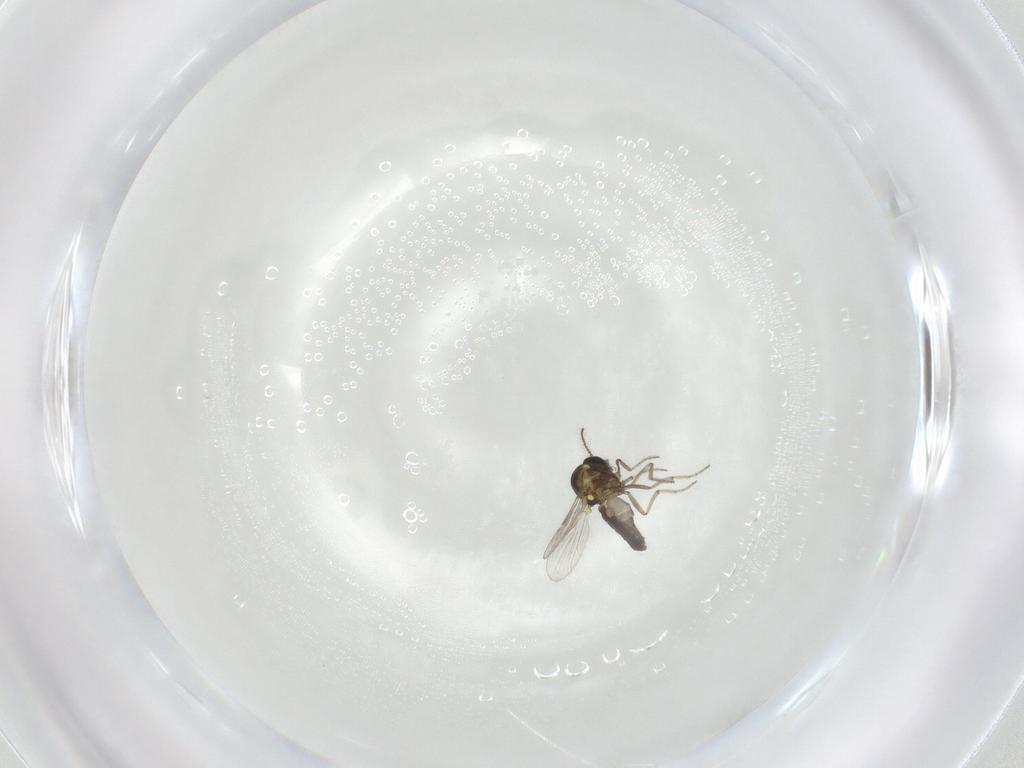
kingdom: Animalia
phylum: Arthropoda
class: Insecta
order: Diptera
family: Ceratopogonidae
